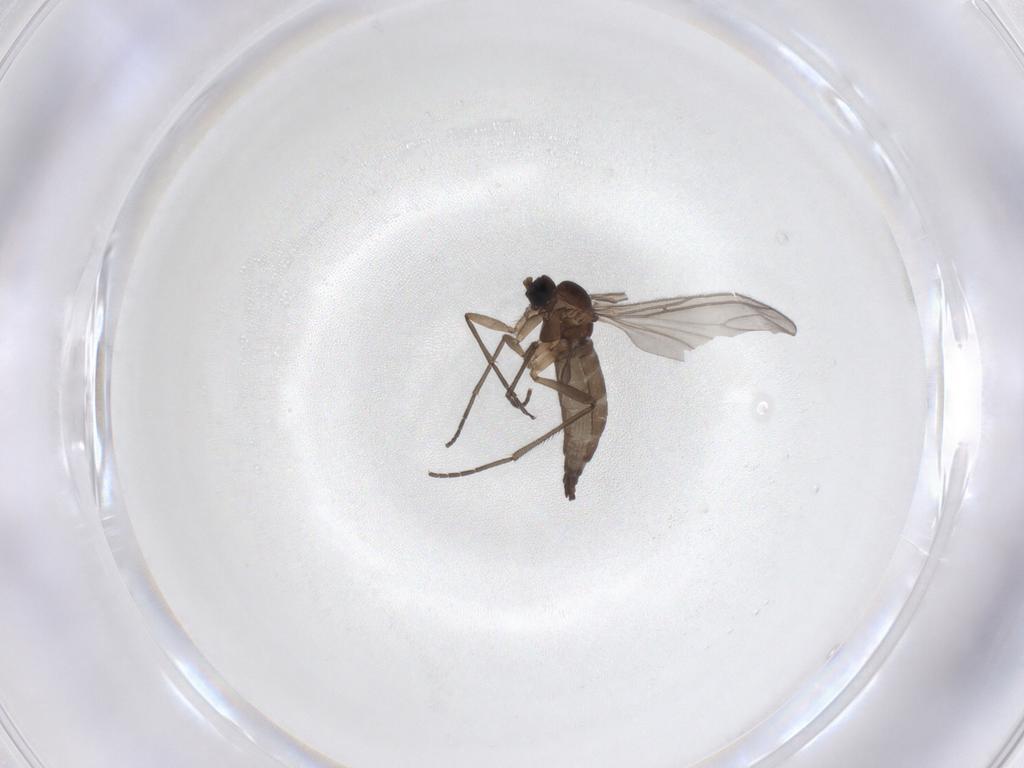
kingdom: Animalia
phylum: Arthropoda
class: Insecta
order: Diptera
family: Sciaridae
